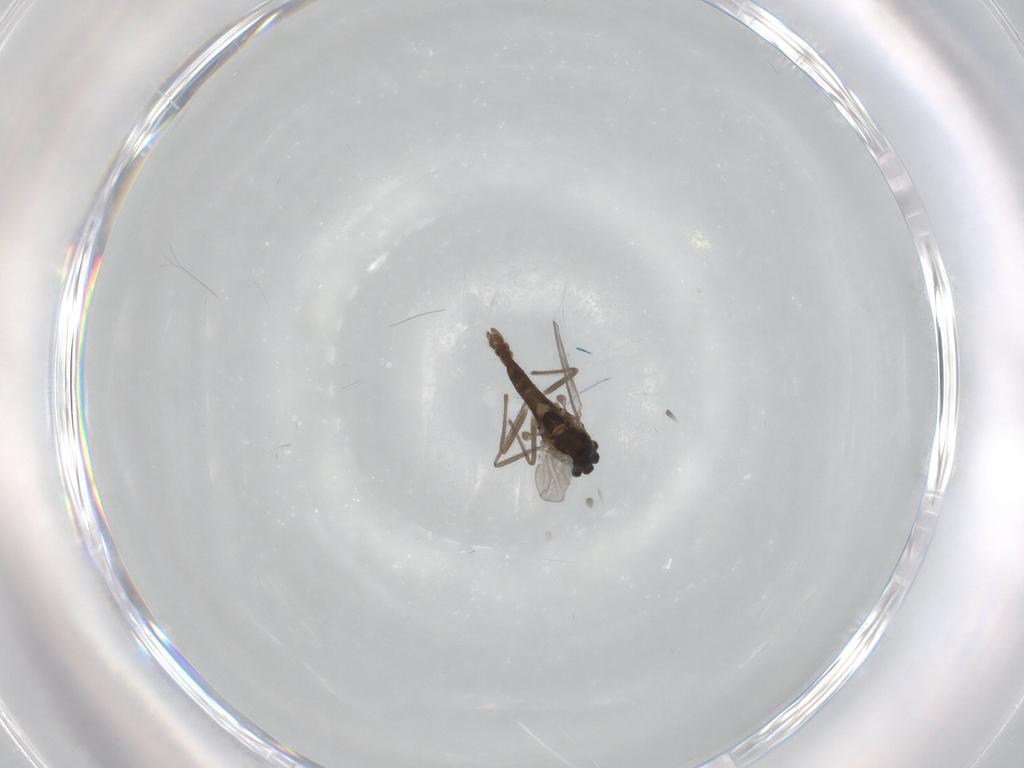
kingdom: Animalia
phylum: Arthropoda
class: Insecta
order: Diptera
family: Chironomidae
